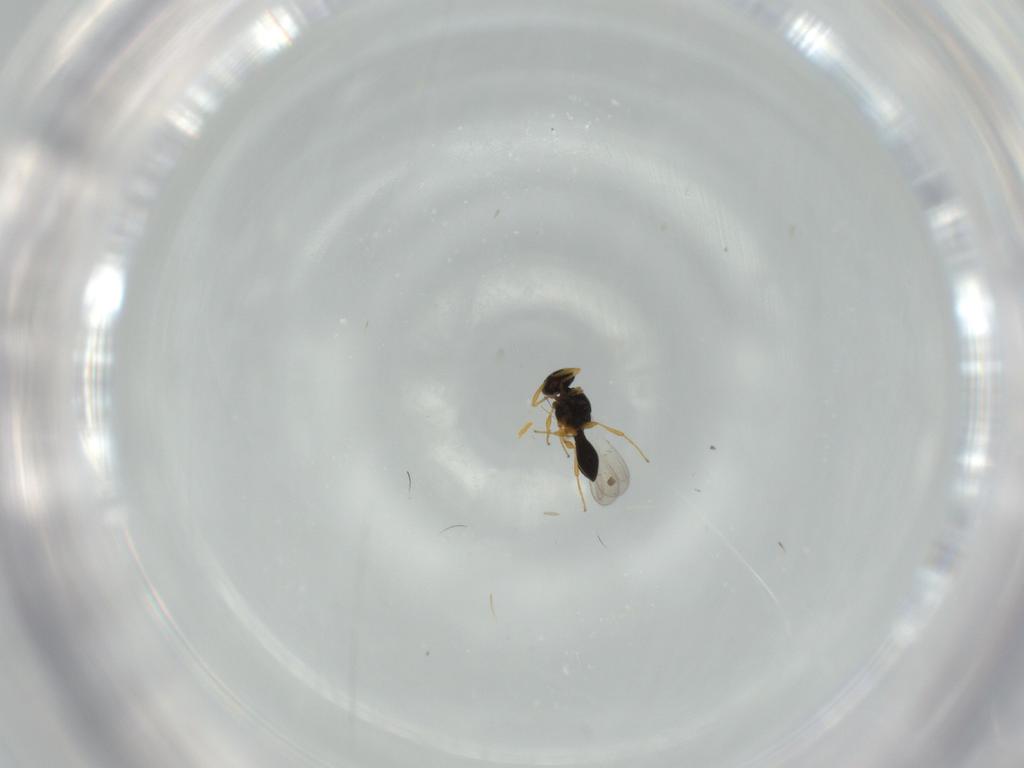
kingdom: Animalia
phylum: Arthropoda
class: Insecta
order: Hymenoptera
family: Platygastridae
